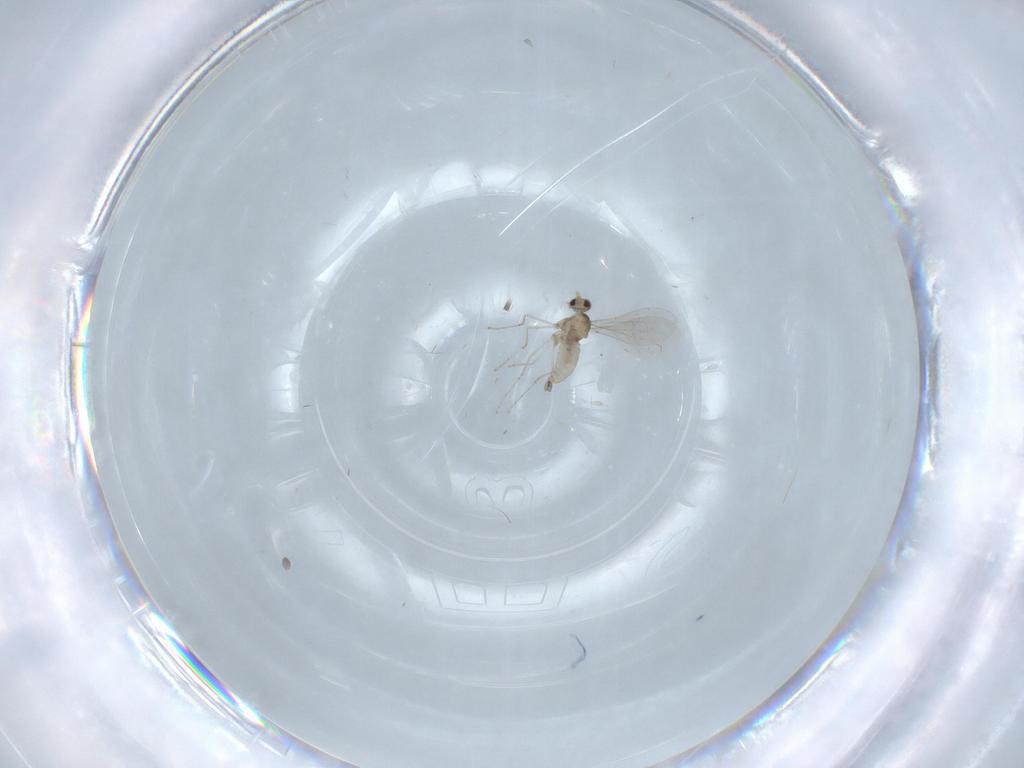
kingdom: Animalia
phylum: Arthropoda
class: Insecta
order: Diptera
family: Cecidomyiidae
